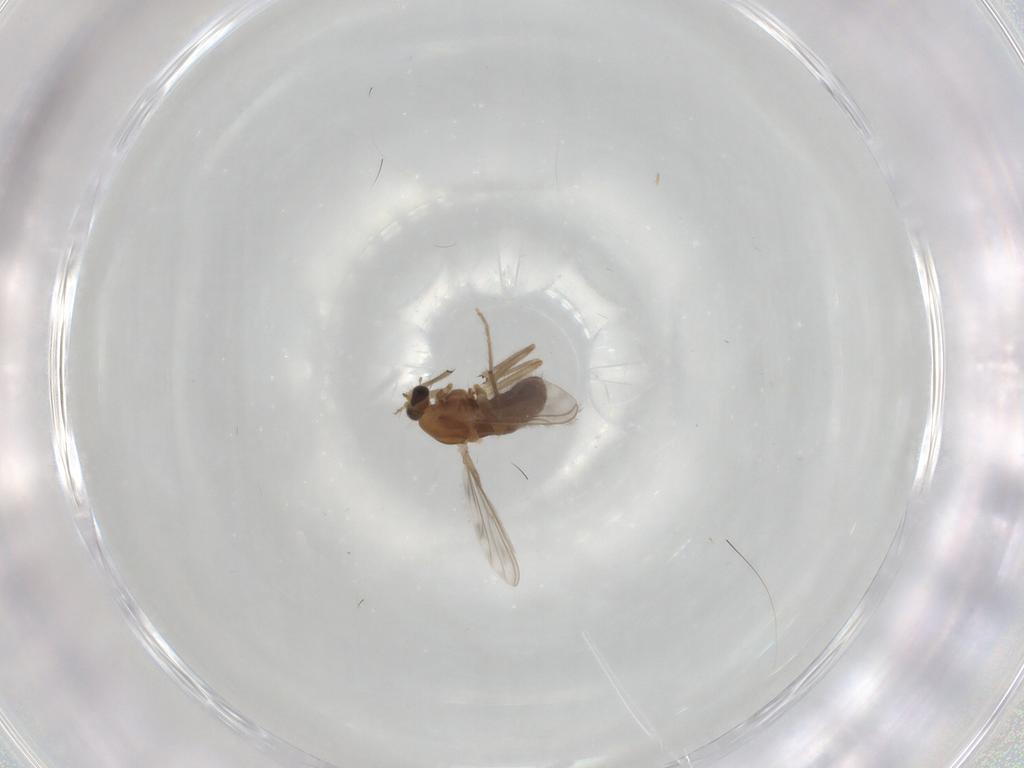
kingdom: Animalia
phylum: Arthropoda
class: Insecta
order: Diptera
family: Chironomidae
